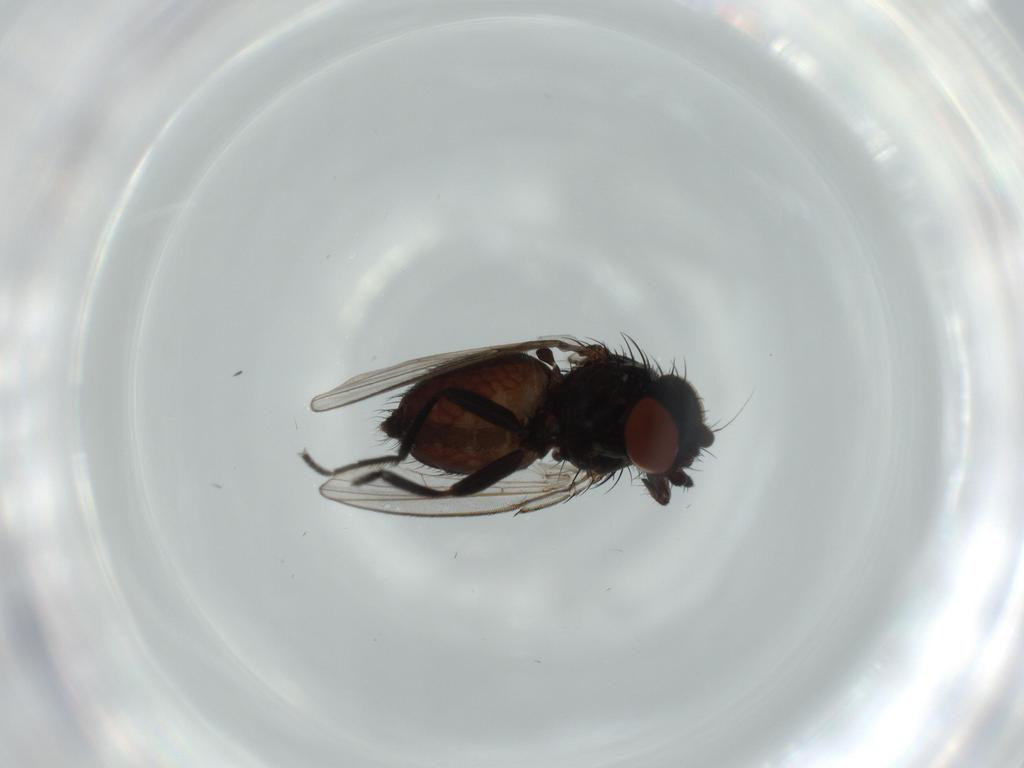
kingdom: Animalia
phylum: Arthropoda
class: Insecta
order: Diptera
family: Milichiidae
